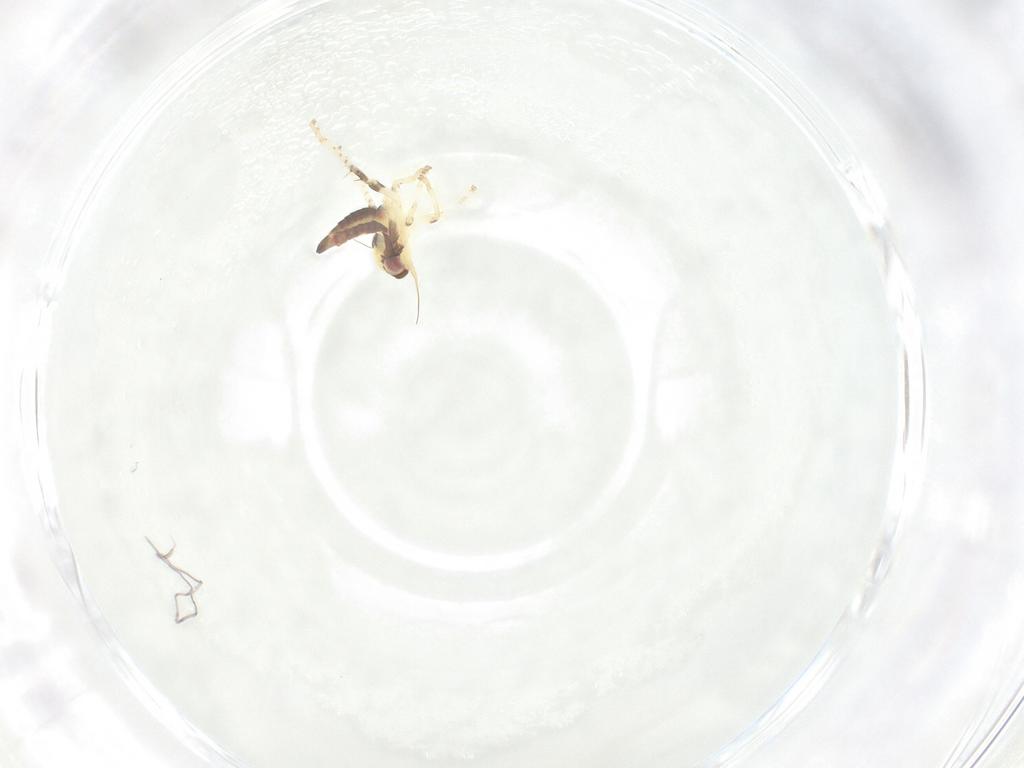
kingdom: Animalia
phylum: Arthropoda
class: Insecta
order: Hemiptera
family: Cicadellidae
